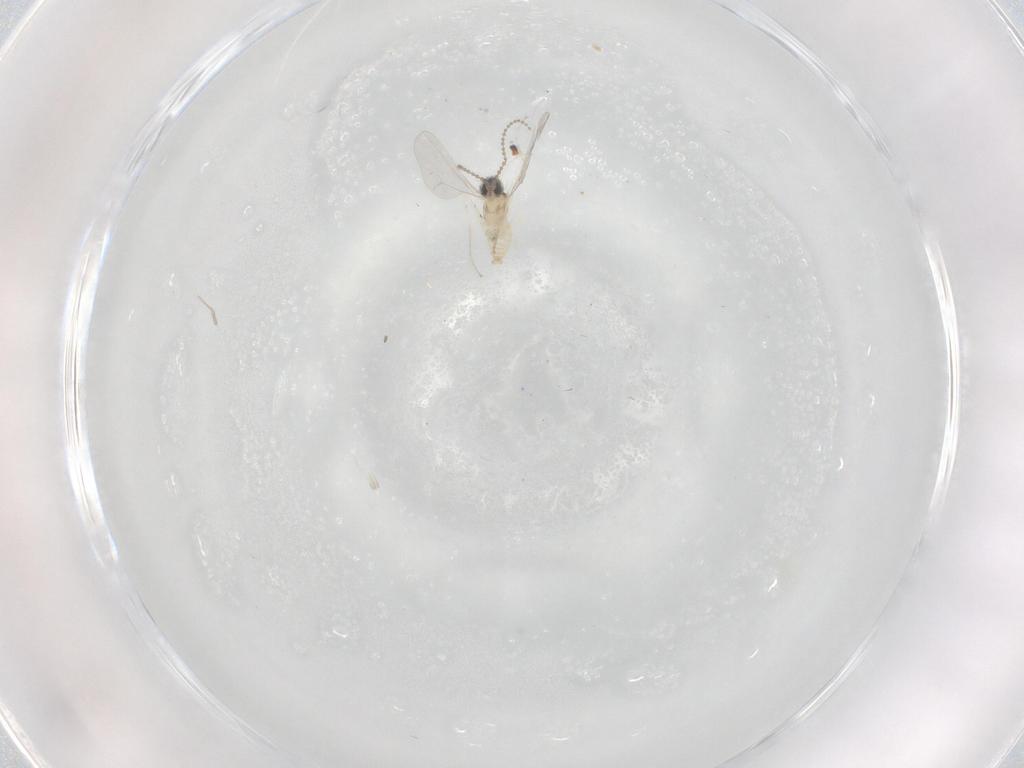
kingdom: Animalia
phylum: Arthropoda
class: Insecta
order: Diptera
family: Cecidomyiidae
